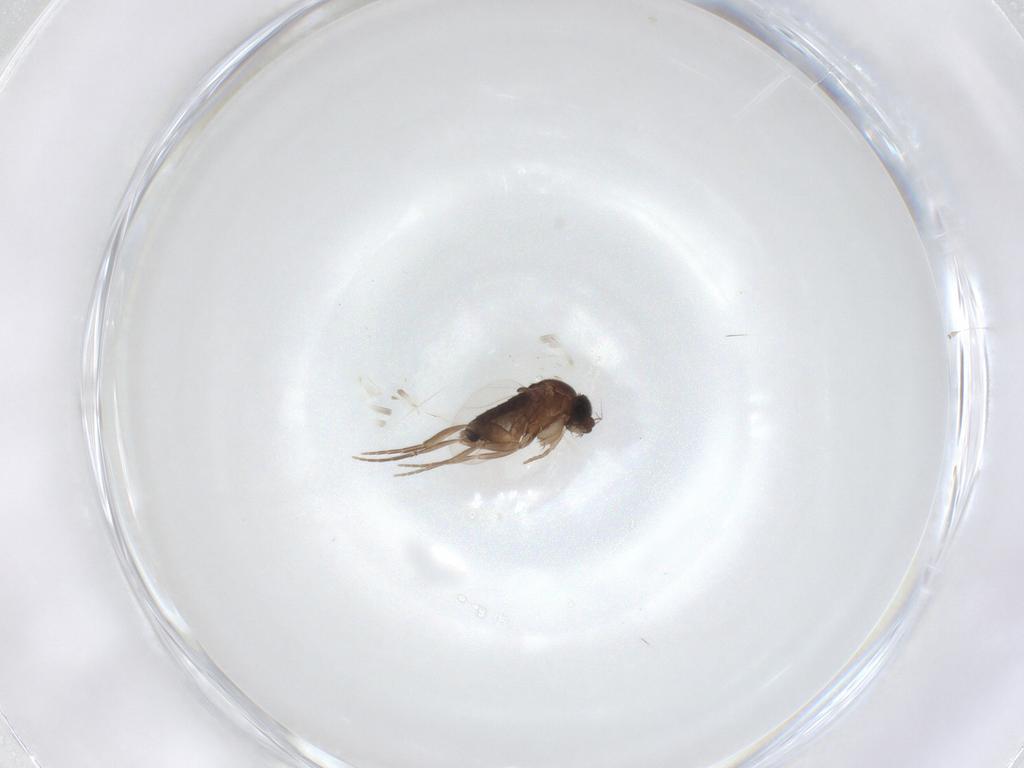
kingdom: Animalia
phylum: Arthropoda
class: Insecta
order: Diptera
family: Phoridae
